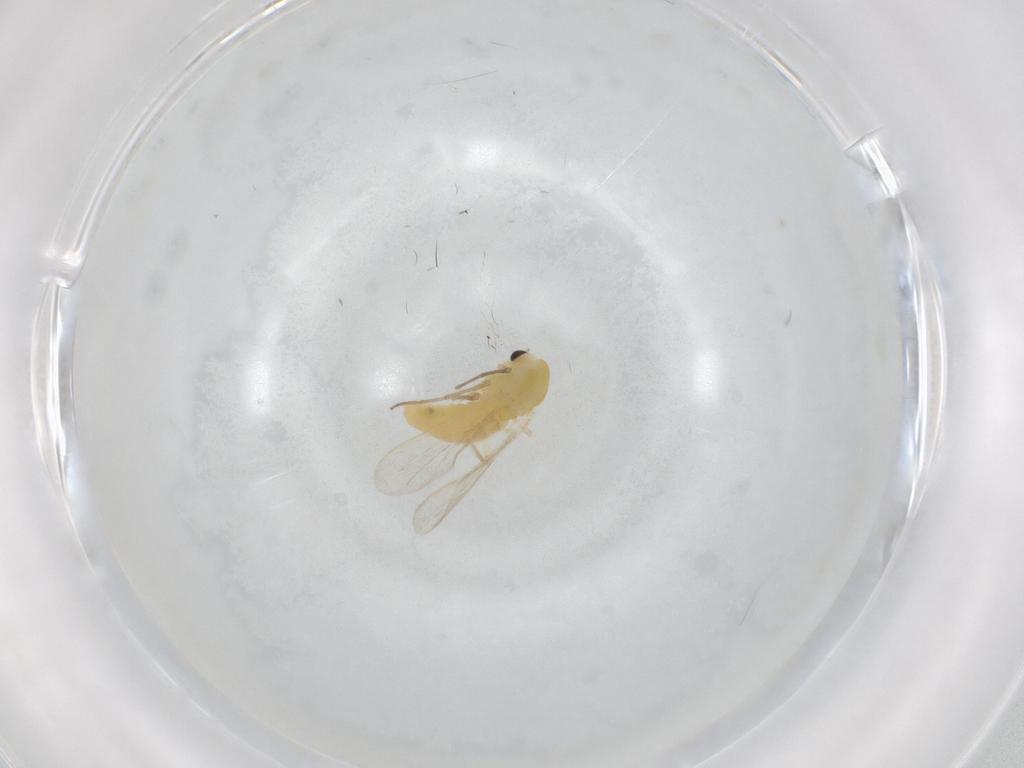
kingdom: Animalia
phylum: Arthropoda
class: Insecta
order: Diptera
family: Chironomidae
